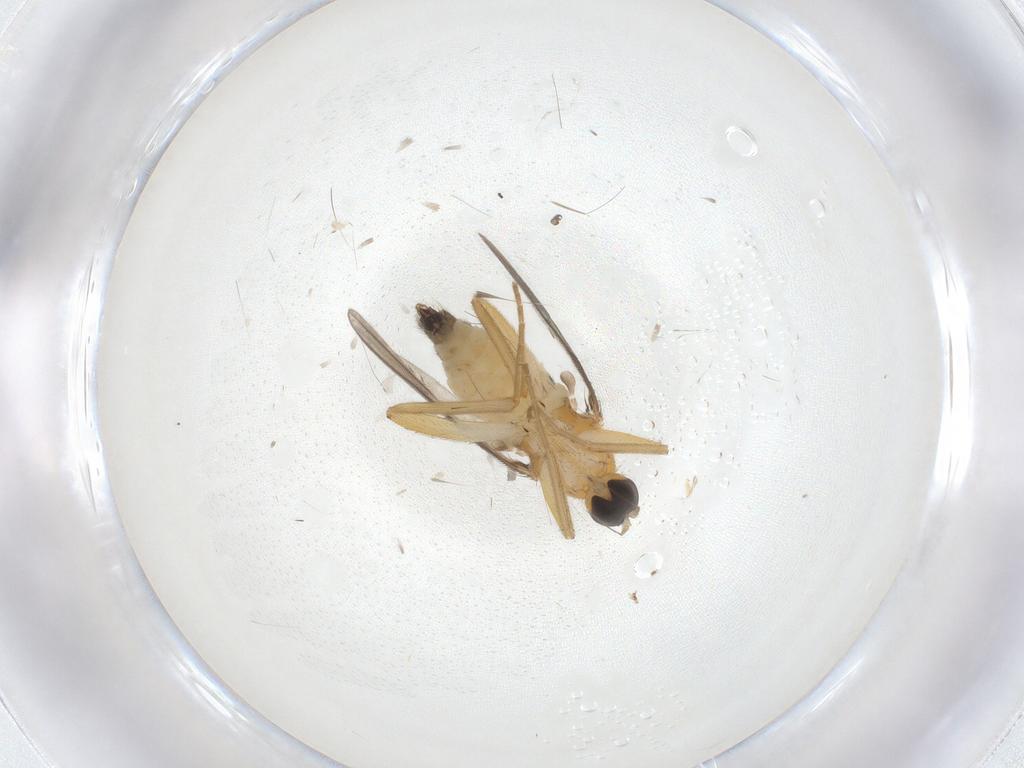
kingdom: Animalia
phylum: Arthropoda
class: Insecta
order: Diptera
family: Hybotidae
